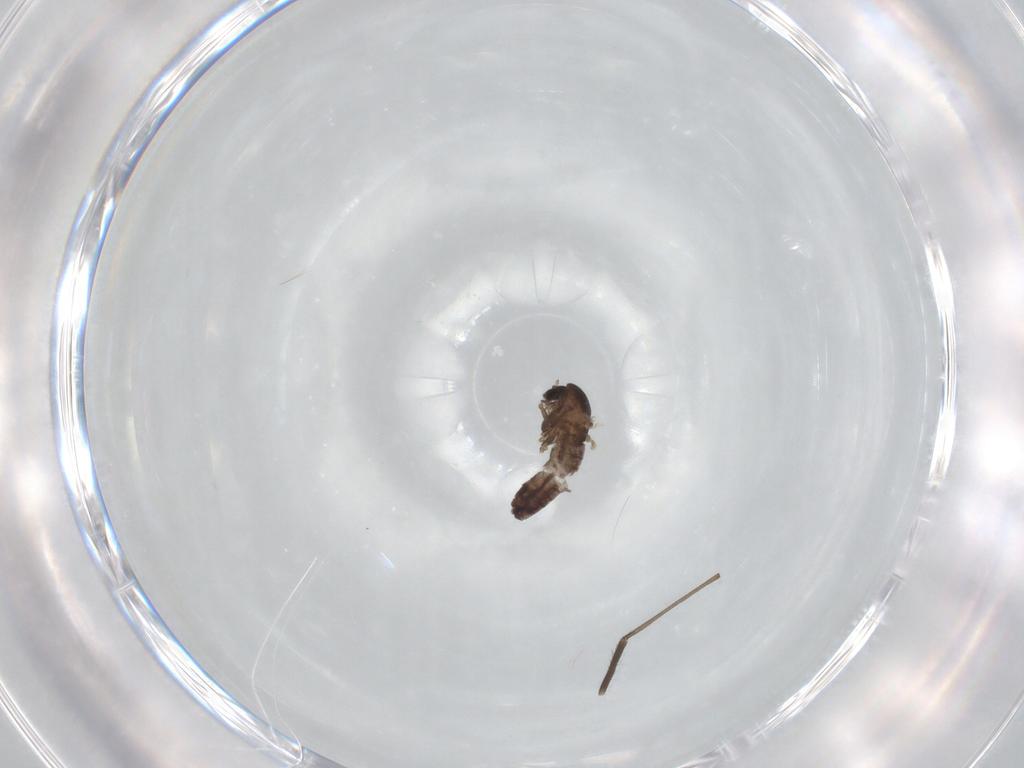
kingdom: Animalia
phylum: Arthropoda
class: Insecta
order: Diptera
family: Chironomidae
